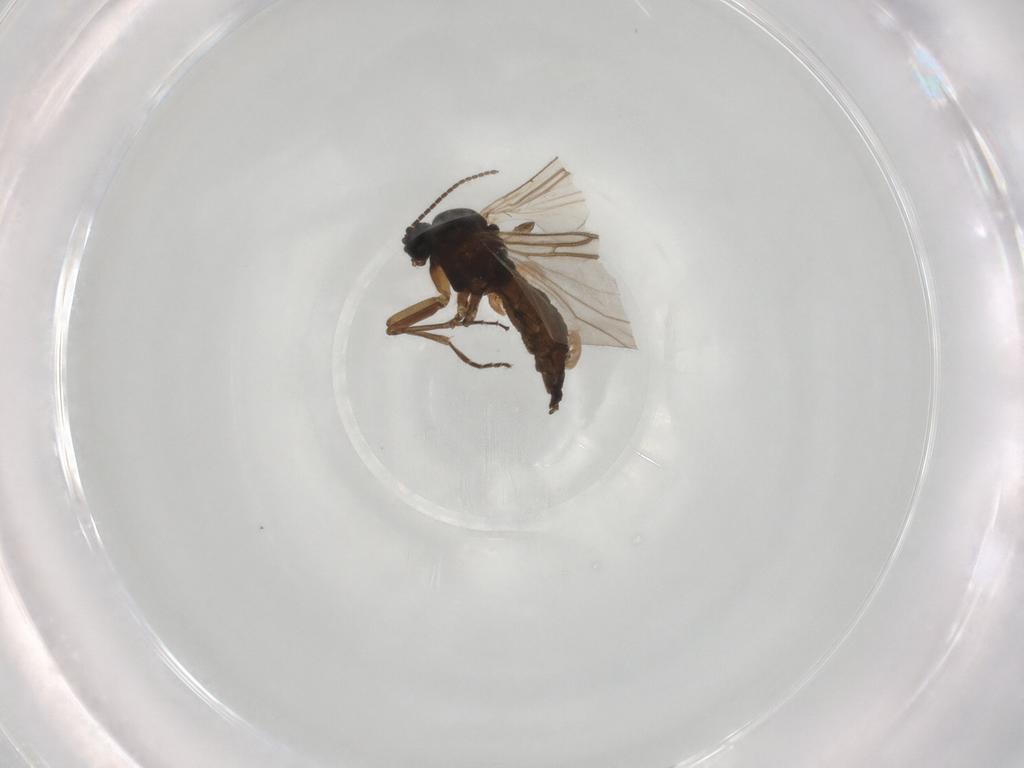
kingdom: Animalia
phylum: Arthropoda
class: Insecta
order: Diptera
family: Sciaridae
